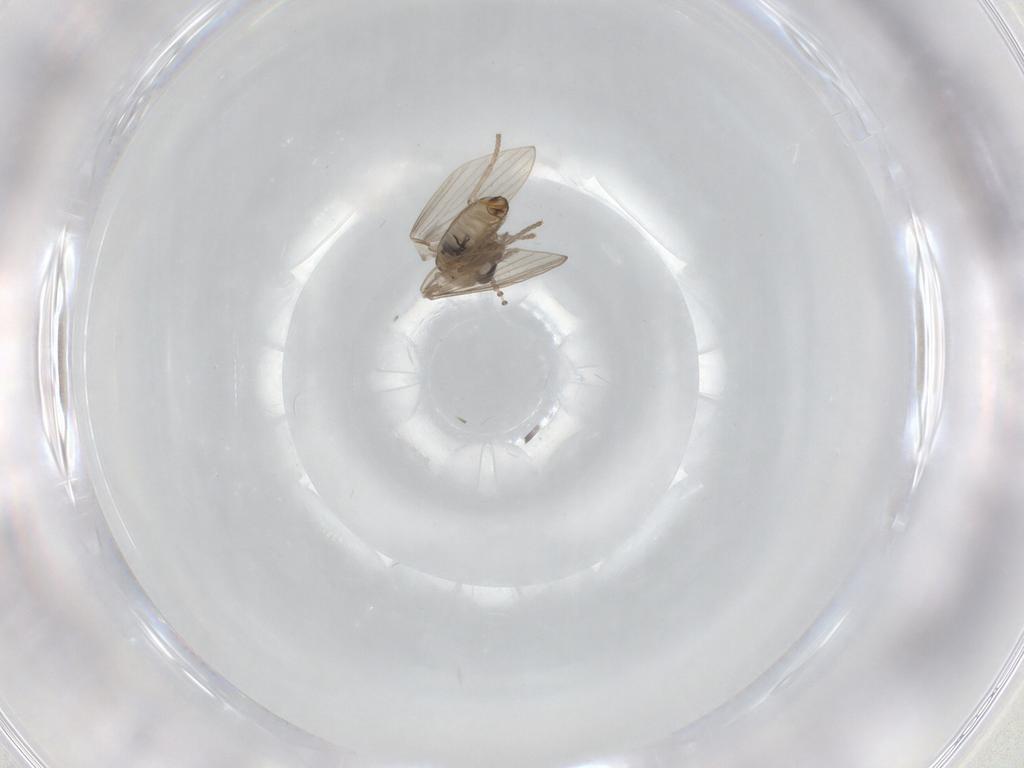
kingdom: Animalia
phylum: Arthropoda
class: Insecta
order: Diptera
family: Psychodidae
